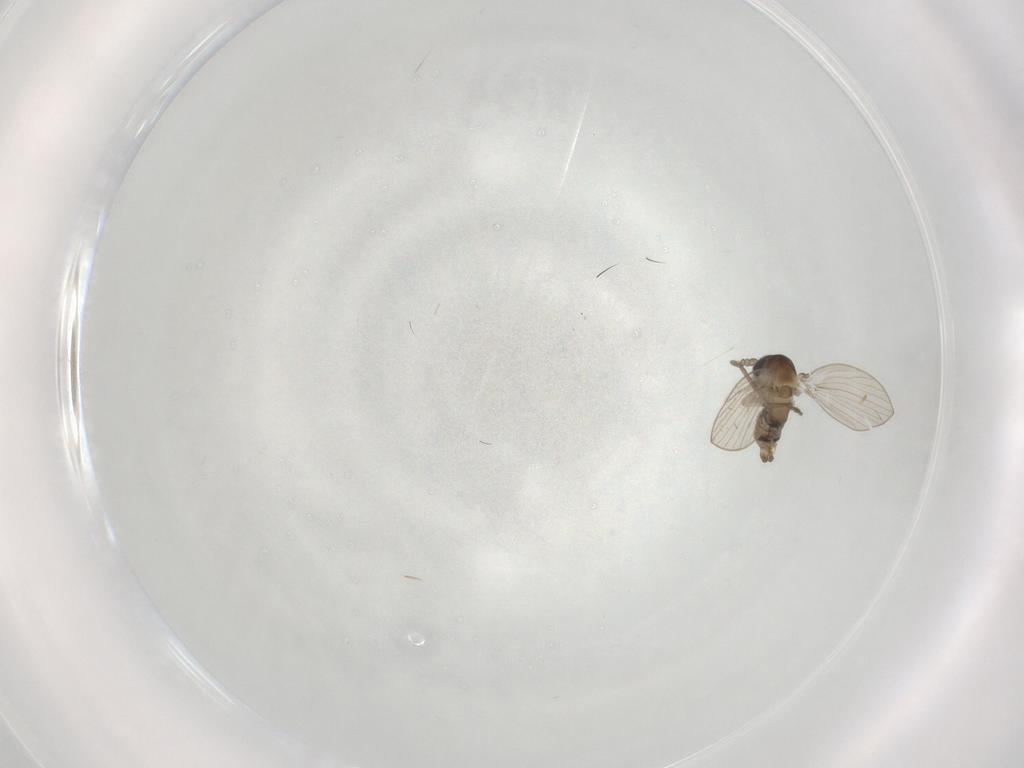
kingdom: Animalia
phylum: Arthropoda
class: Insecta
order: Diptera
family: Psychodidae
